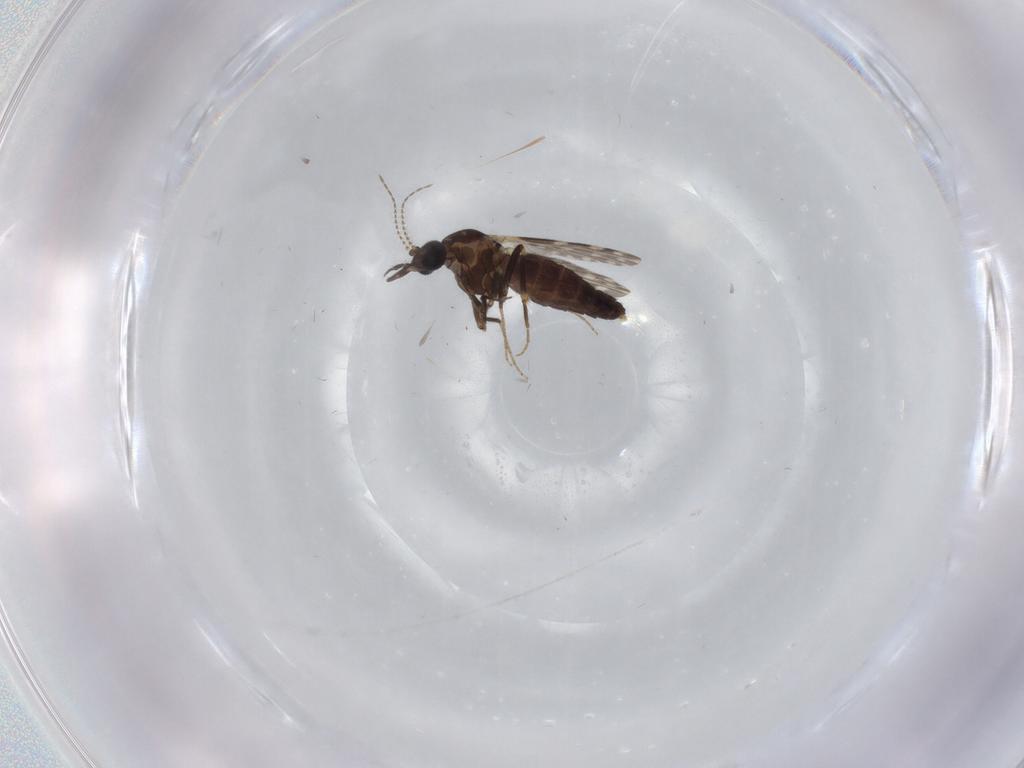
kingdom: Animalia
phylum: Arthropoda
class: Insecta
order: Diptera
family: Ceratopogonidae
